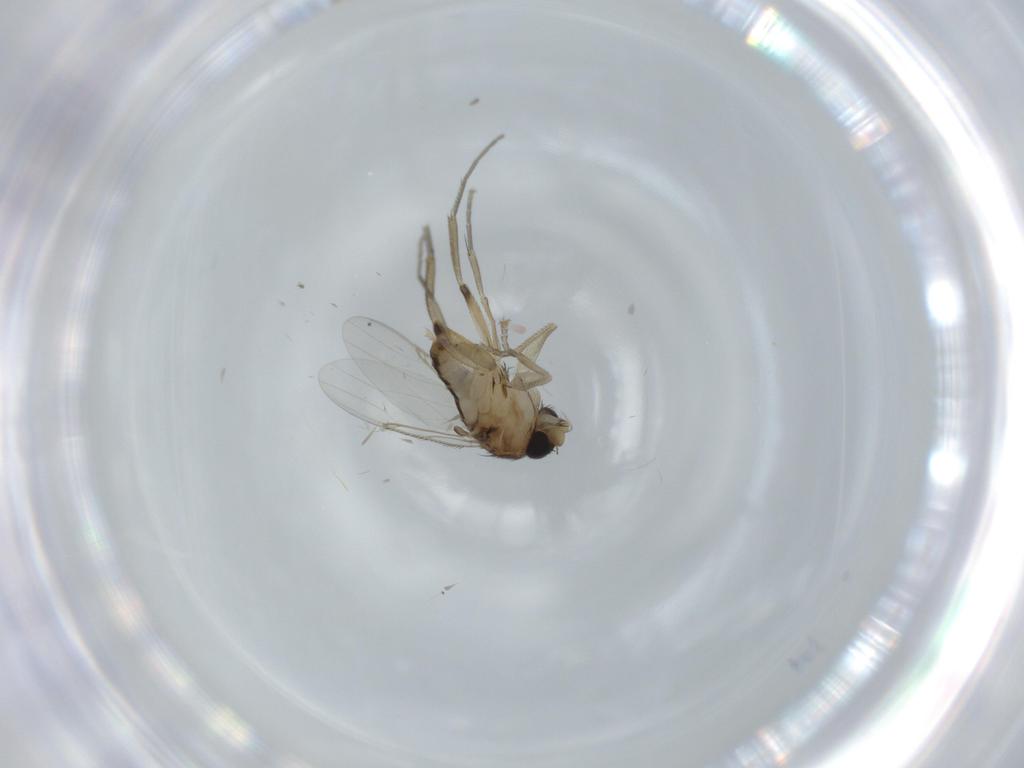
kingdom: Animalia
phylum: Arthropoda
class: Insecta
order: Diptera
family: Phoridae
